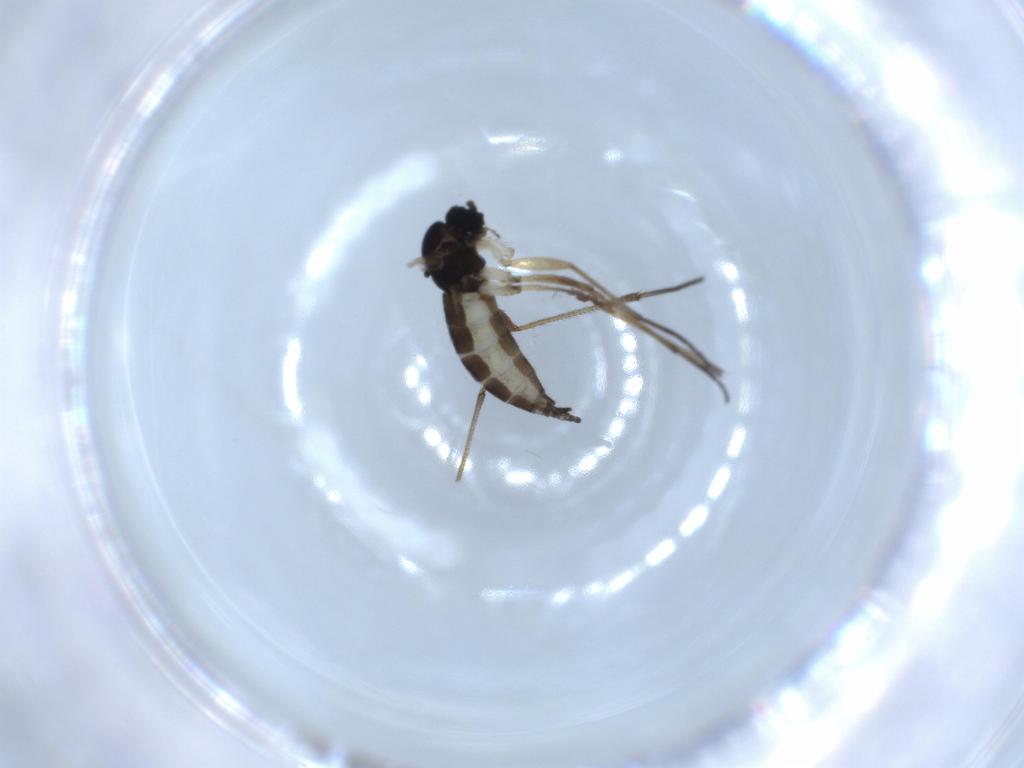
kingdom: Animalia
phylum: Arthropoda
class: Insecta
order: Diptera
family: Sciaridae
